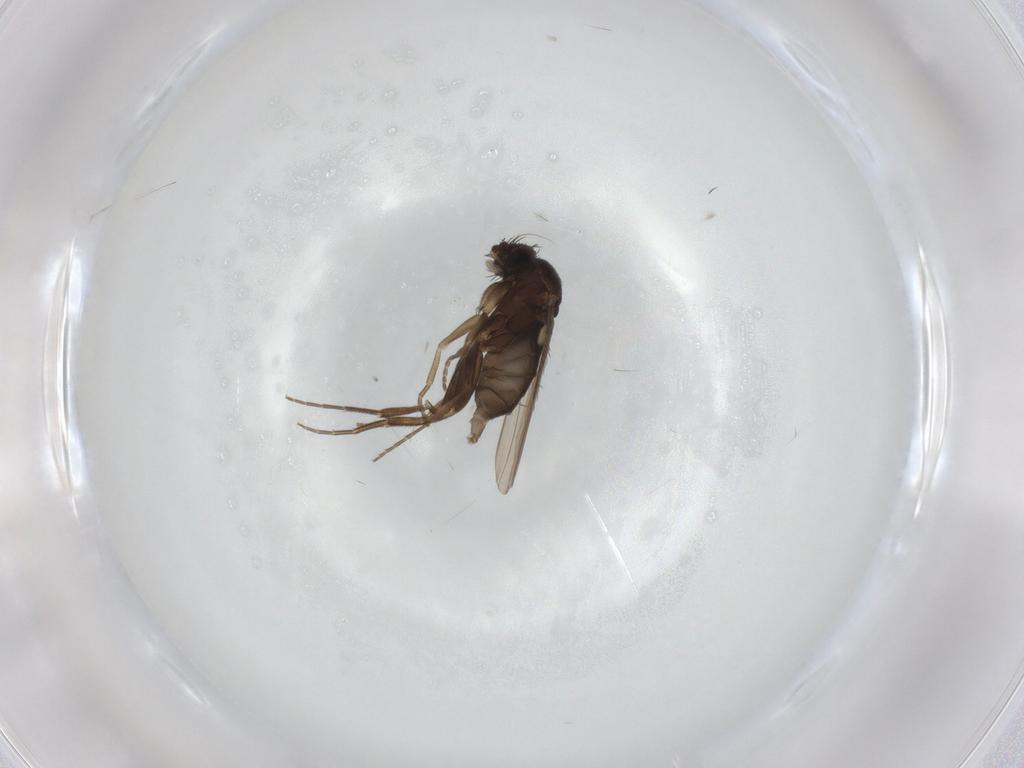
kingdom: Animalia
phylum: Arthropoda
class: Insecta
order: Diptera
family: Phoridae
